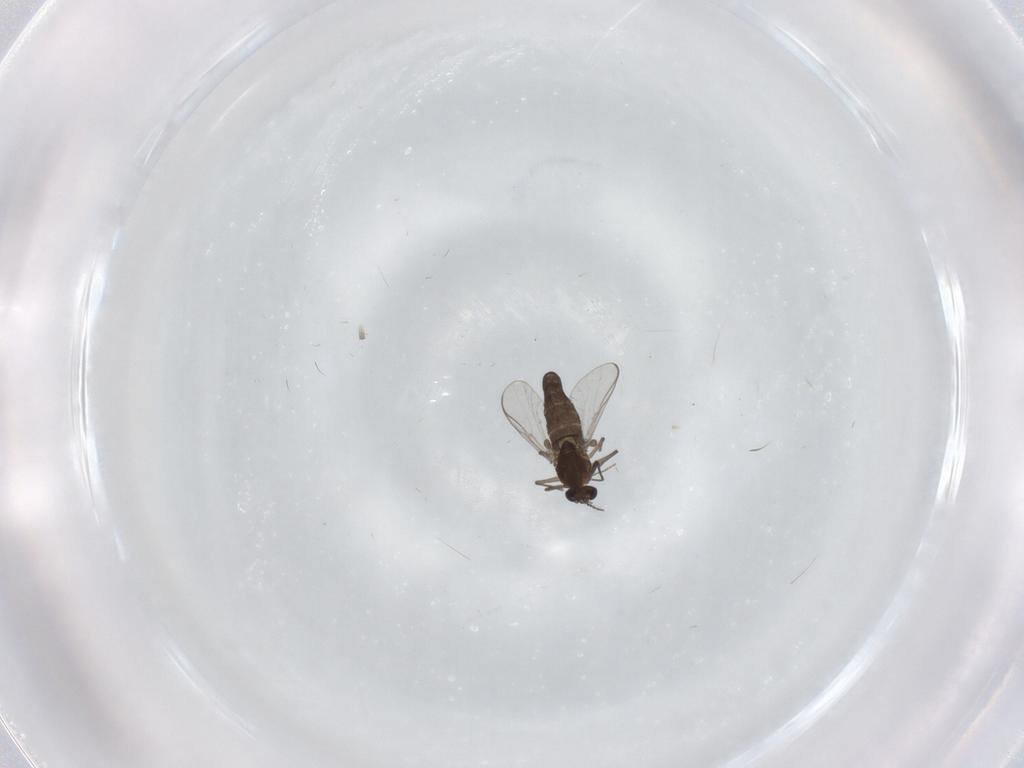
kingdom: Animalia
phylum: Arthropoda
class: Insecta
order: Diptera
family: Chironomidae
